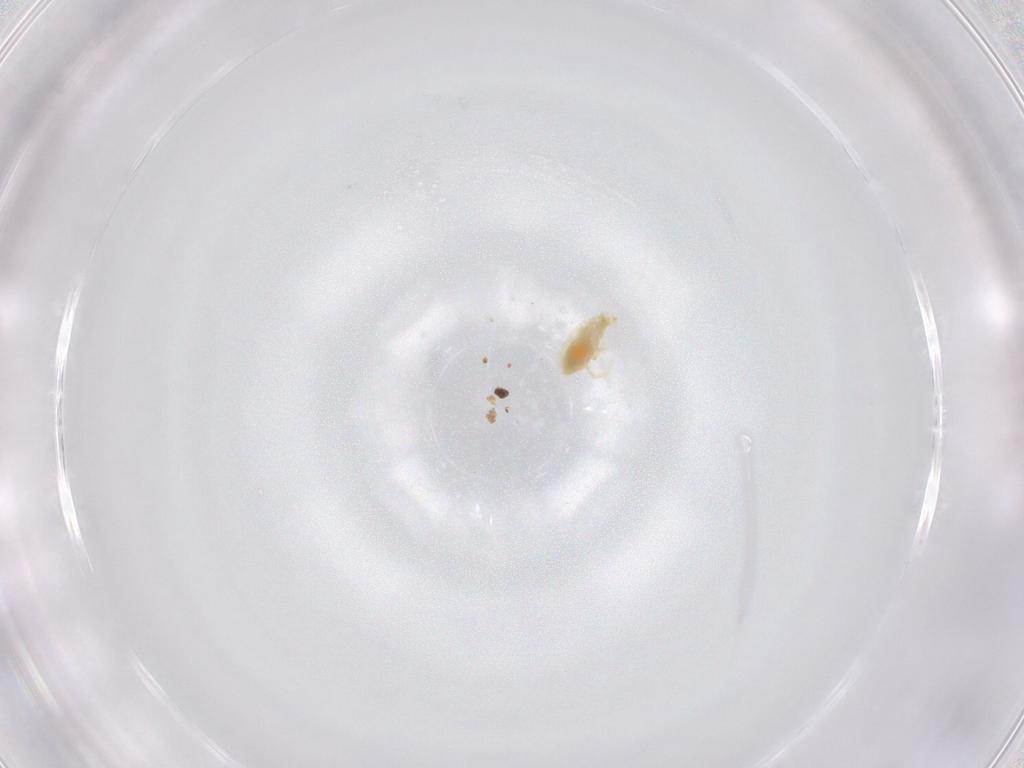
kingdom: Animalia
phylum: Arthropoda
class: Arachnida
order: Trombidiformes
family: Rhagidiidae
